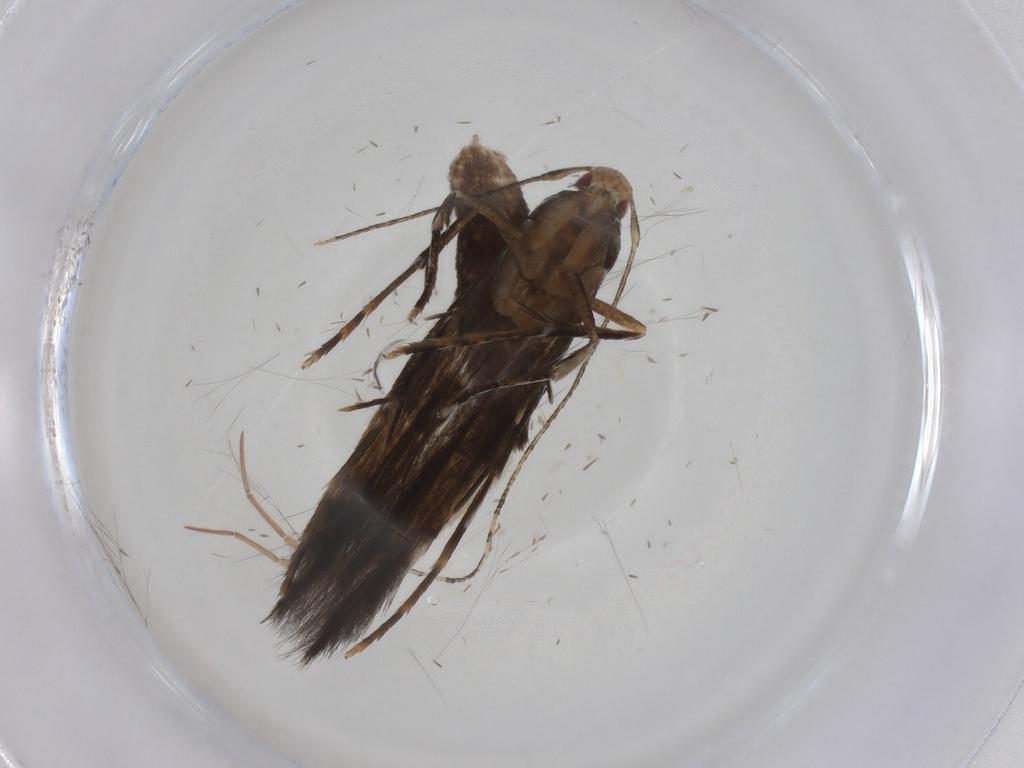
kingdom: Animalia
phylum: Arthropoda
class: Insecta
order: Lepidoptera
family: Cosmopterigidae
